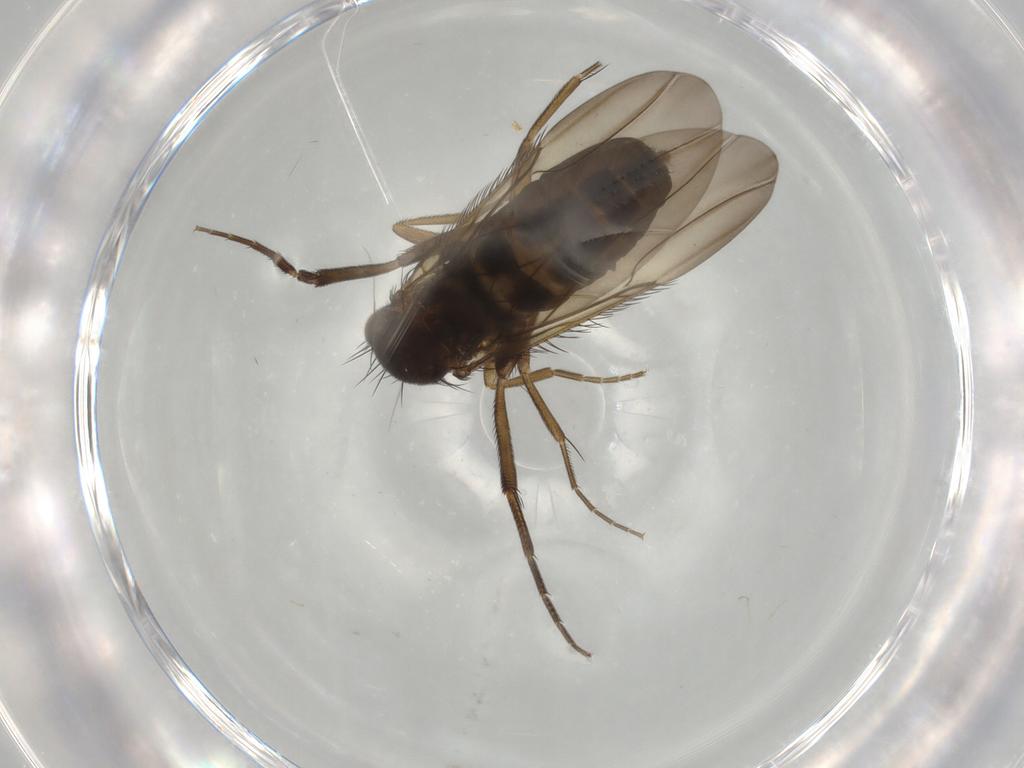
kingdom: Animalia
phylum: Arthropoda
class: Insecta
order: Diptera
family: Phoridae
